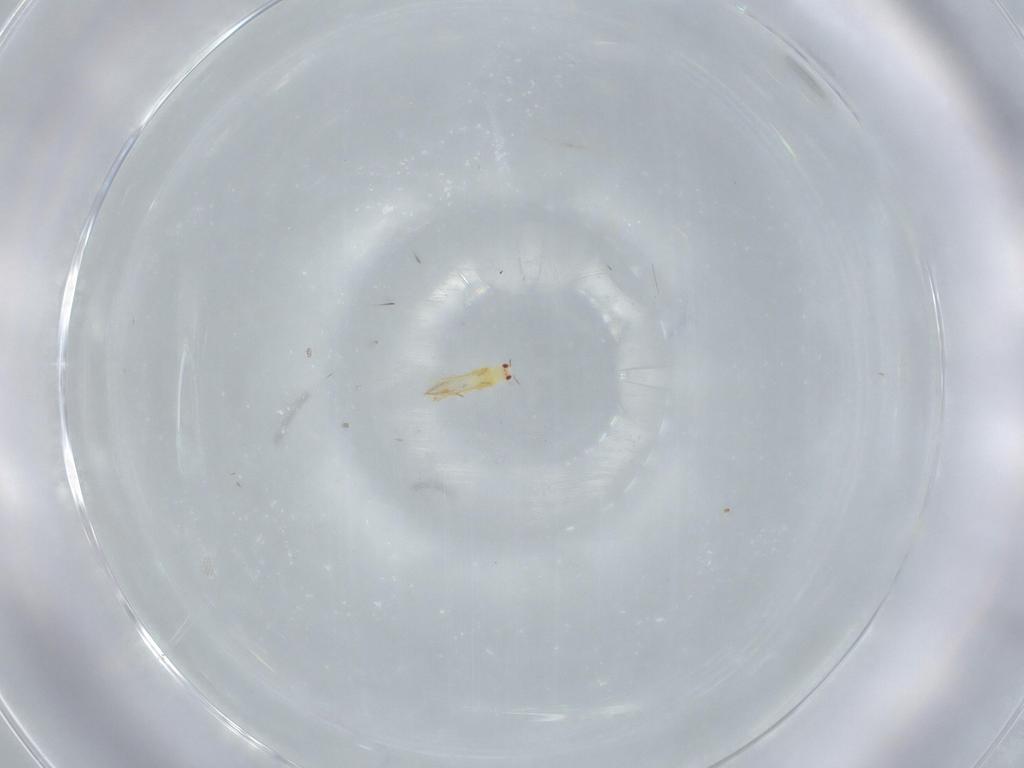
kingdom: Animalia
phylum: Arthropoda
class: Insecta
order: Thysanoptera
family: Thripidae
